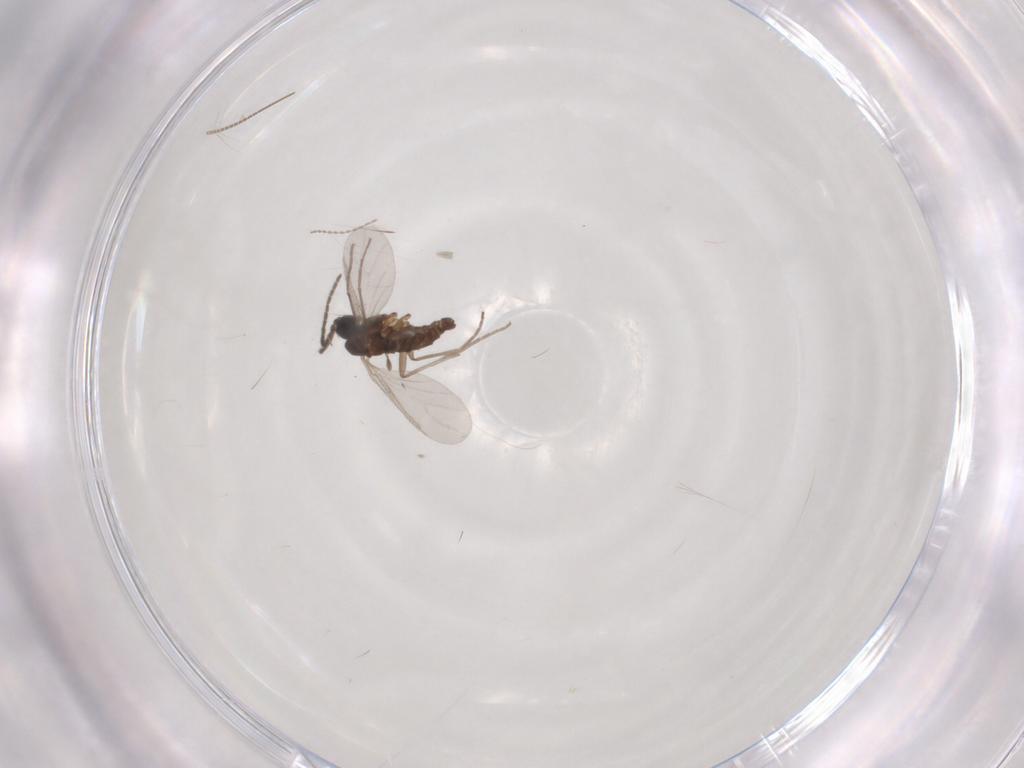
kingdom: Animalia
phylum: Arthropoda
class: Insecta
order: Diptera
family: Sciaridae
